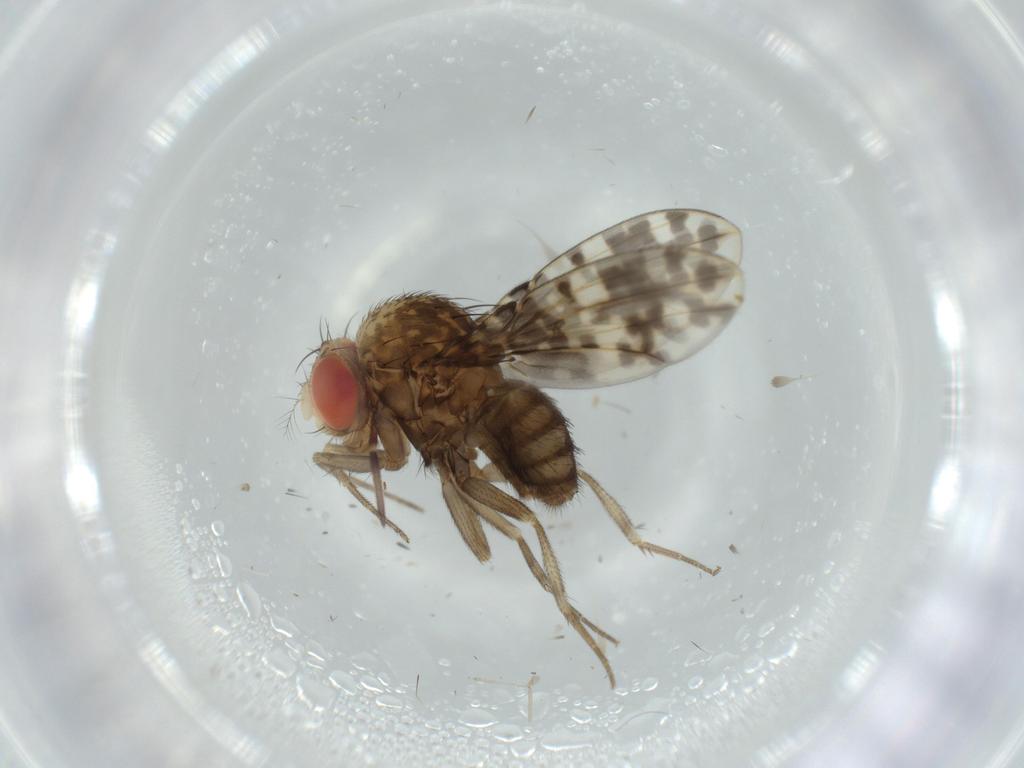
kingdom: Animalia
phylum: Arthropoda
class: Insecta
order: Diptera
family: Drosophilidae
